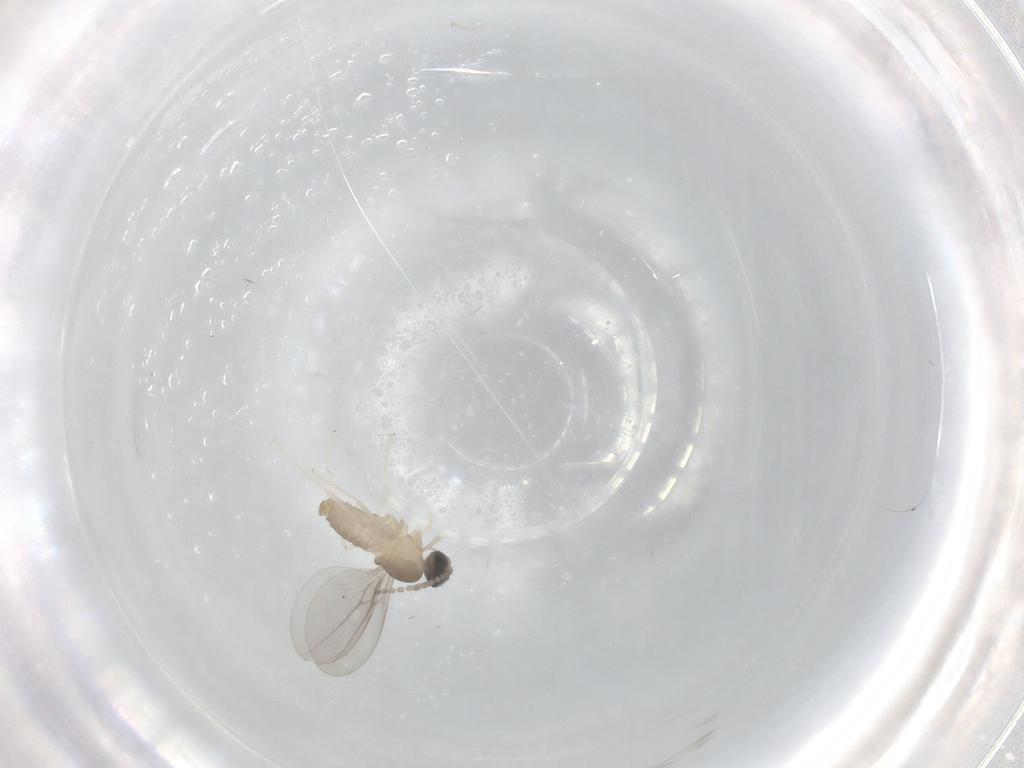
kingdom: Animalia
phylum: Arthropoda
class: Insecta
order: Diptera
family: Cecidomyiidae
